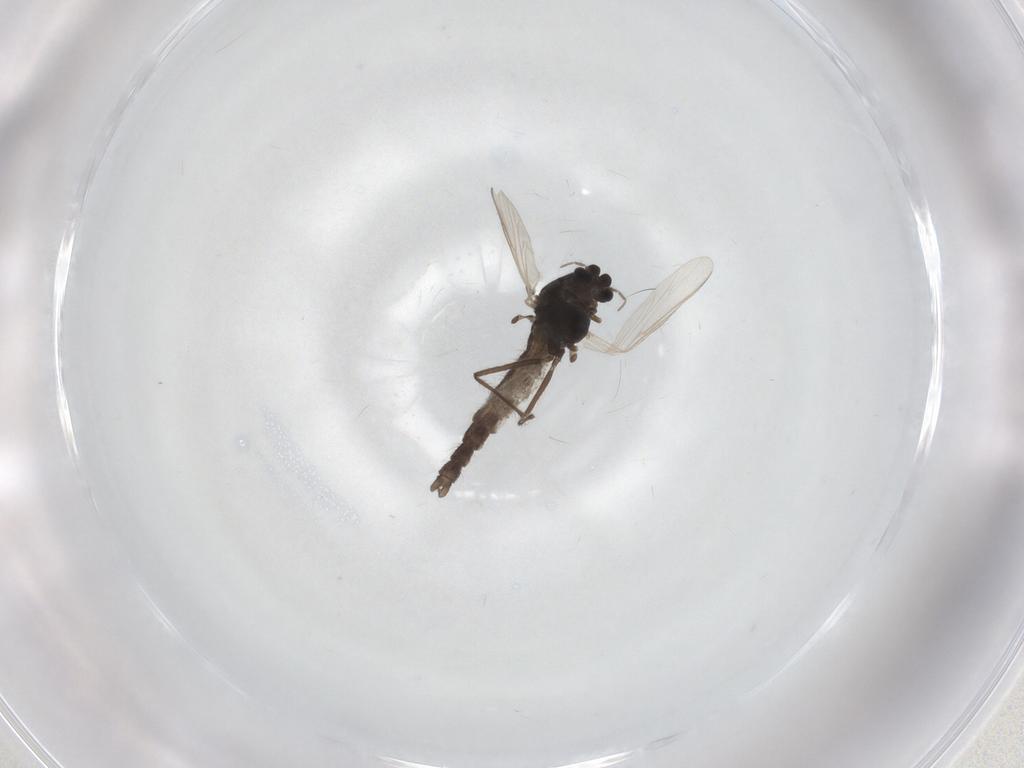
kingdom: Animalia
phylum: Arthropoda
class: Insecta
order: Diptera
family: Chironomidae
